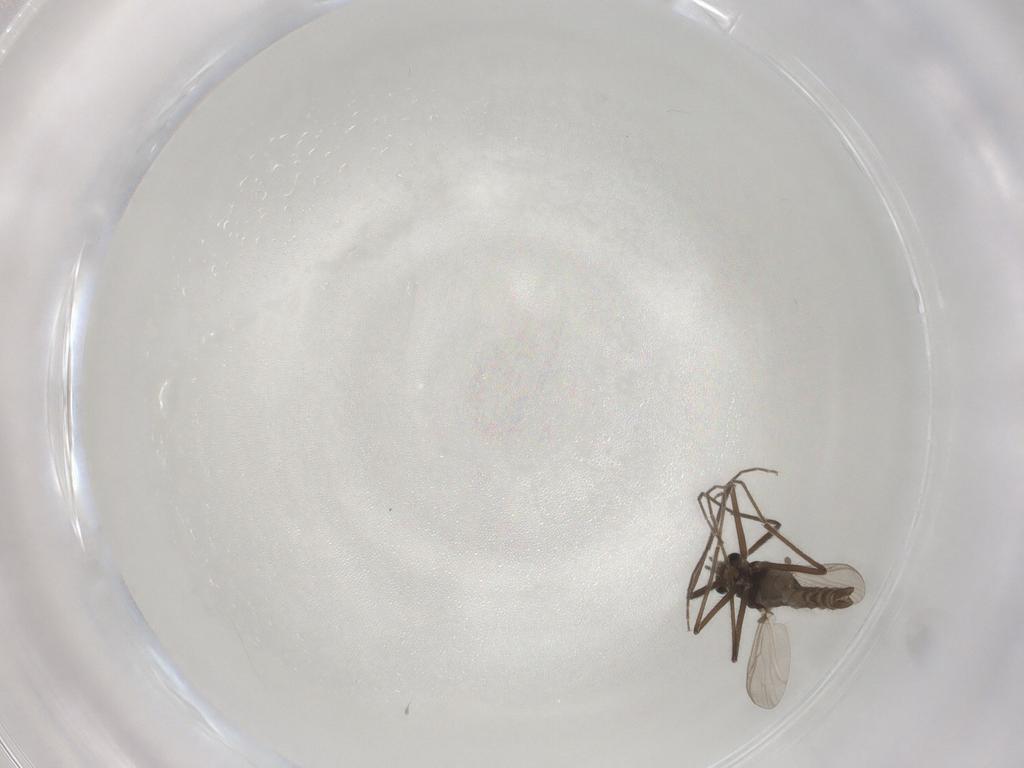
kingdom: Animalia
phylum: Arthropoda
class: Insecta
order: Diptera
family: Chironomidae
